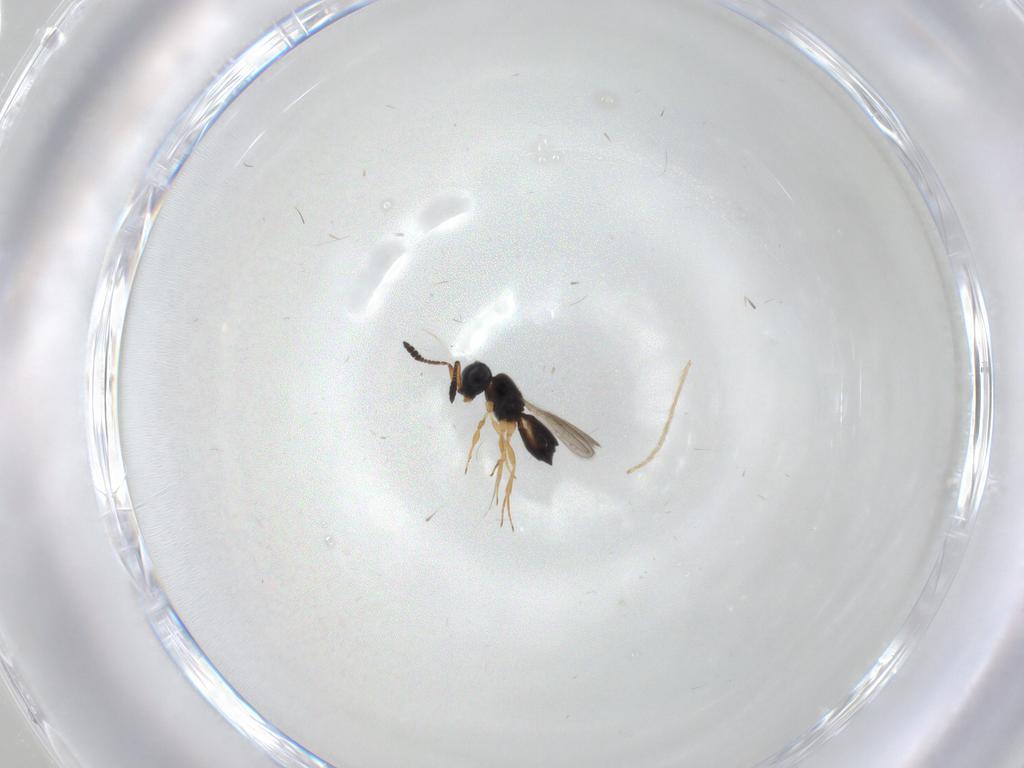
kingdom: Animalia
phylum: Arthropoda
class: Insecta
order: Hymenoptera
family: Scelionidae
